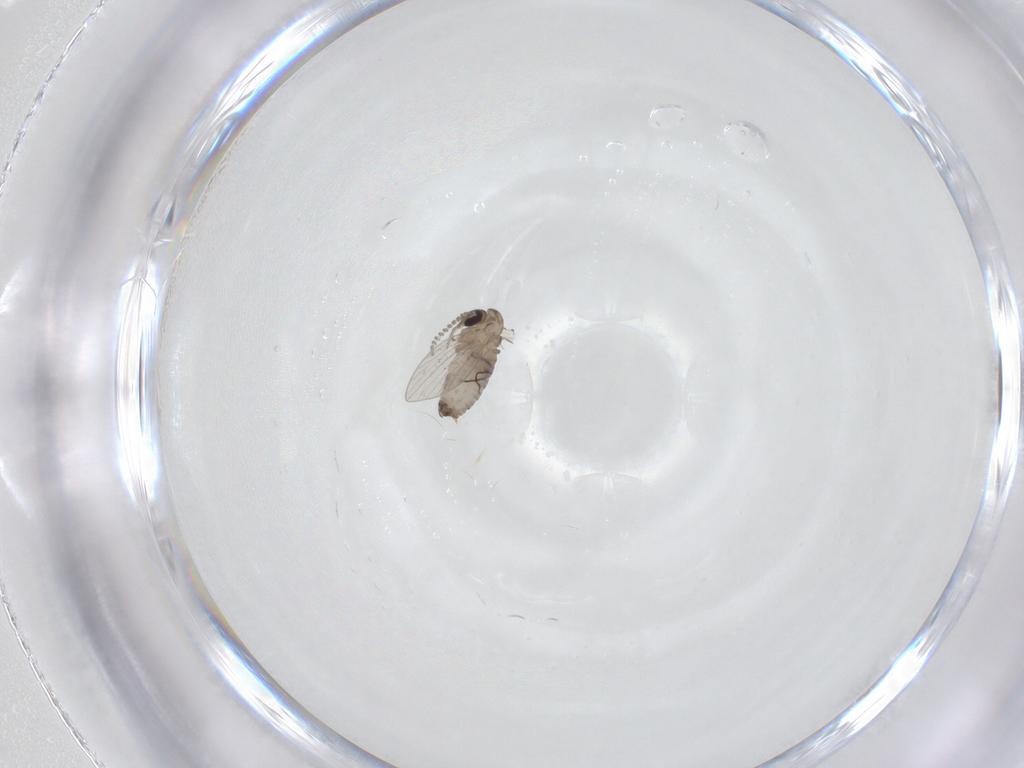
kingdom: Animalia
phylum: Arthropoda
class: Insecta
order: Diptera
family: Psychodidae
